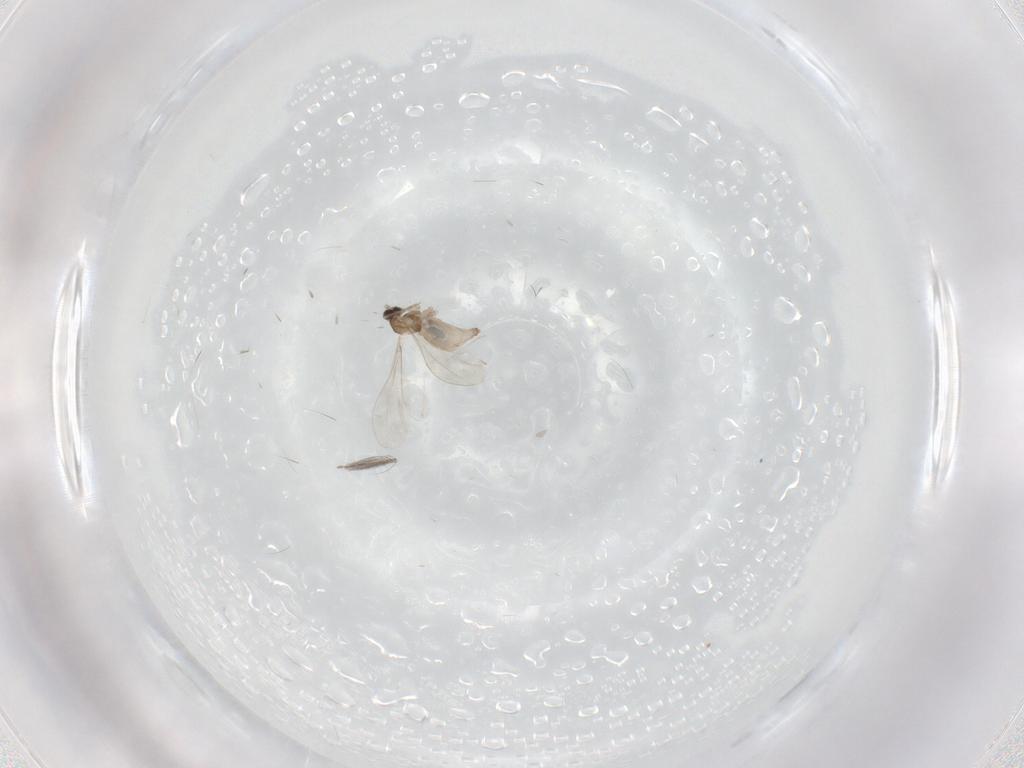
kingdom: Animalia
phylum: Arthropoda
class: Insecta
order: Diptera
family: Cecidomyiidae
